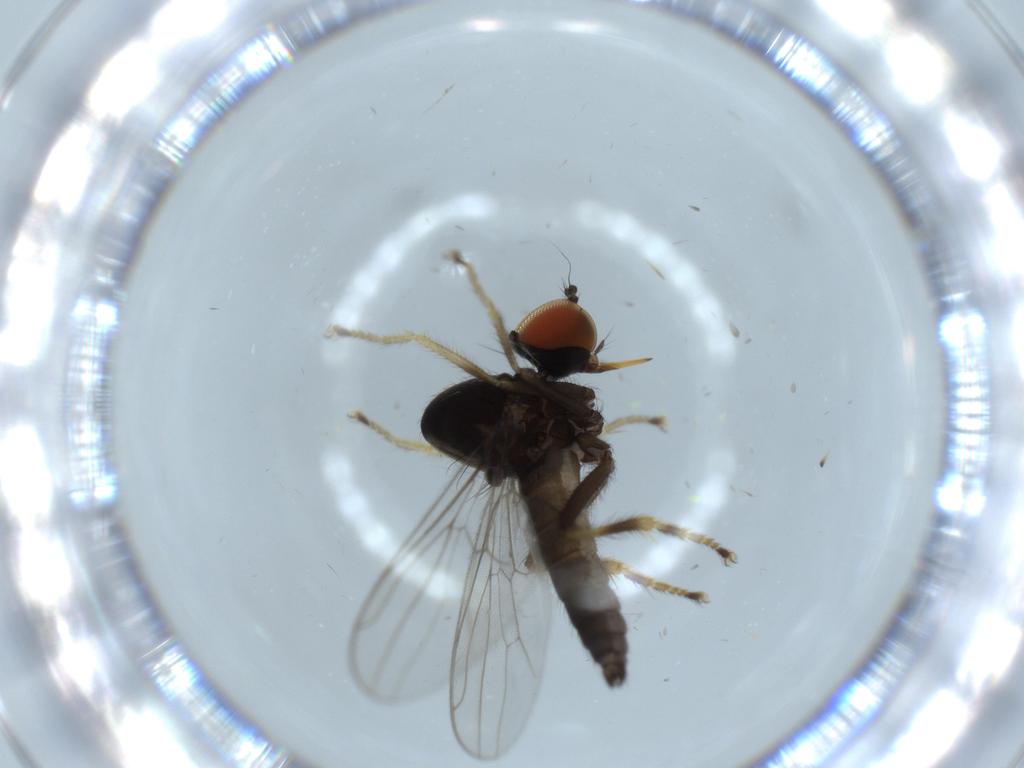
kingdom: Animalia
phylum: Arthropoda
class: Insecta
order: Diptera
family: Hybotidae
